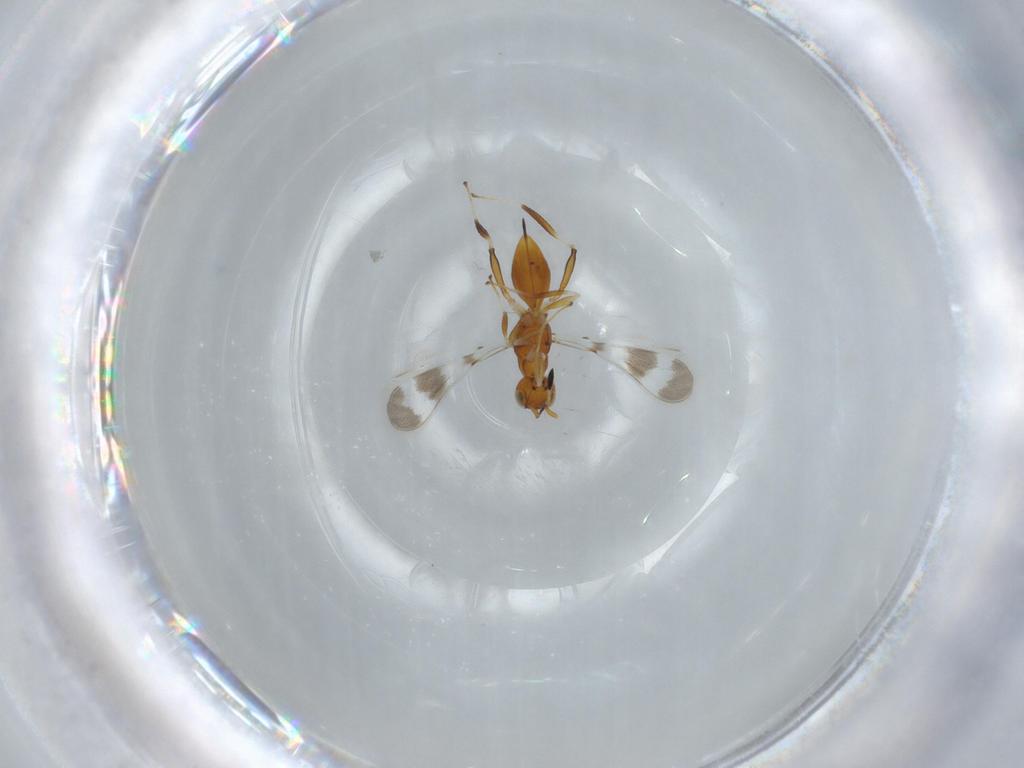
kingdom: Animalia
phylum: Arthropoda
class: Insecta
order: Hymenoptera
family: Mymaridae
